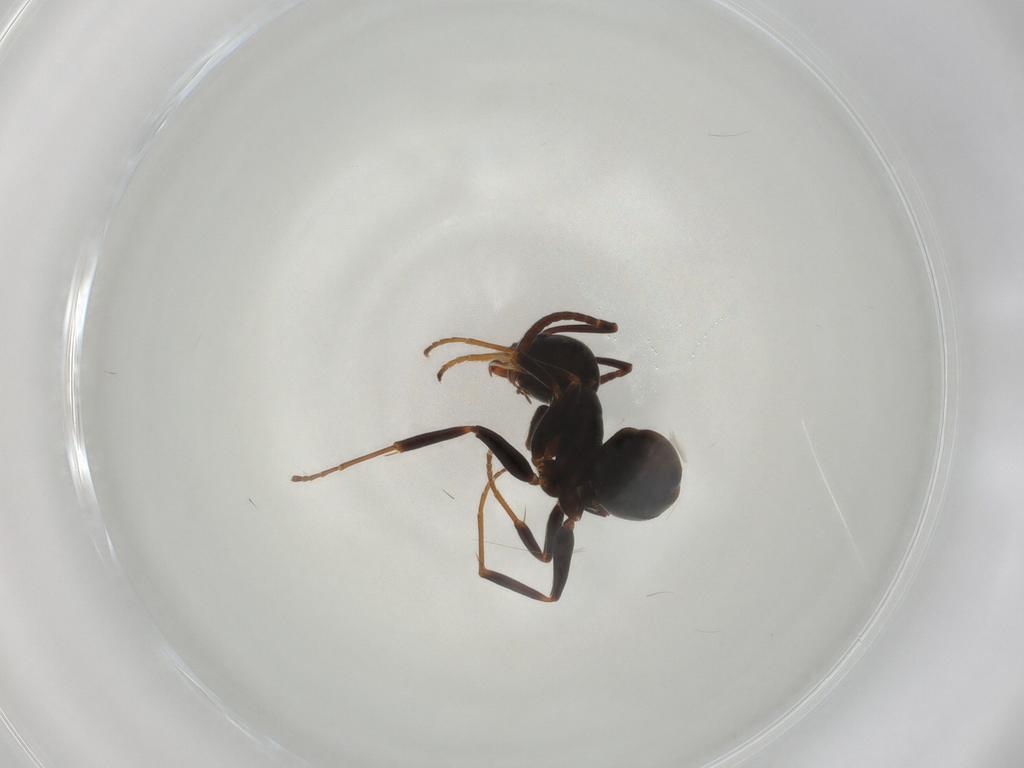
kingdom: Animalia
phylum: Arthropoda
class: Insecta
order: Hymenoptera
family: Formicidae
